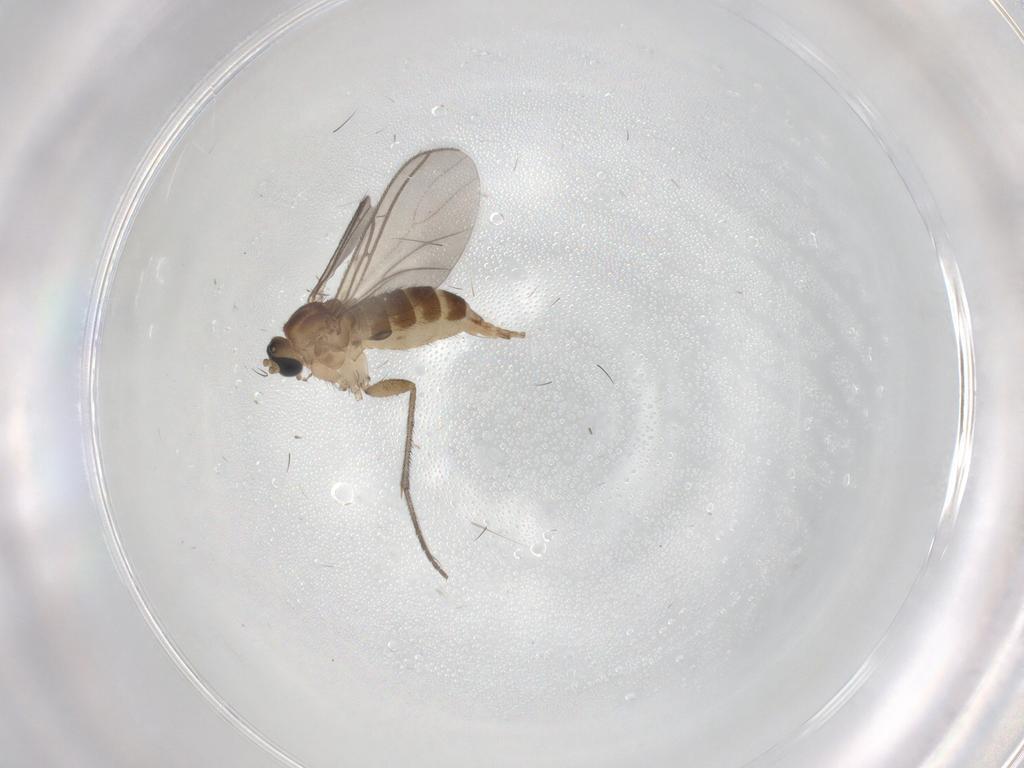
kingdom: Animalia
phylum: Arthropoda
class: Insecta
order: Diptera
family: Sciaridae
